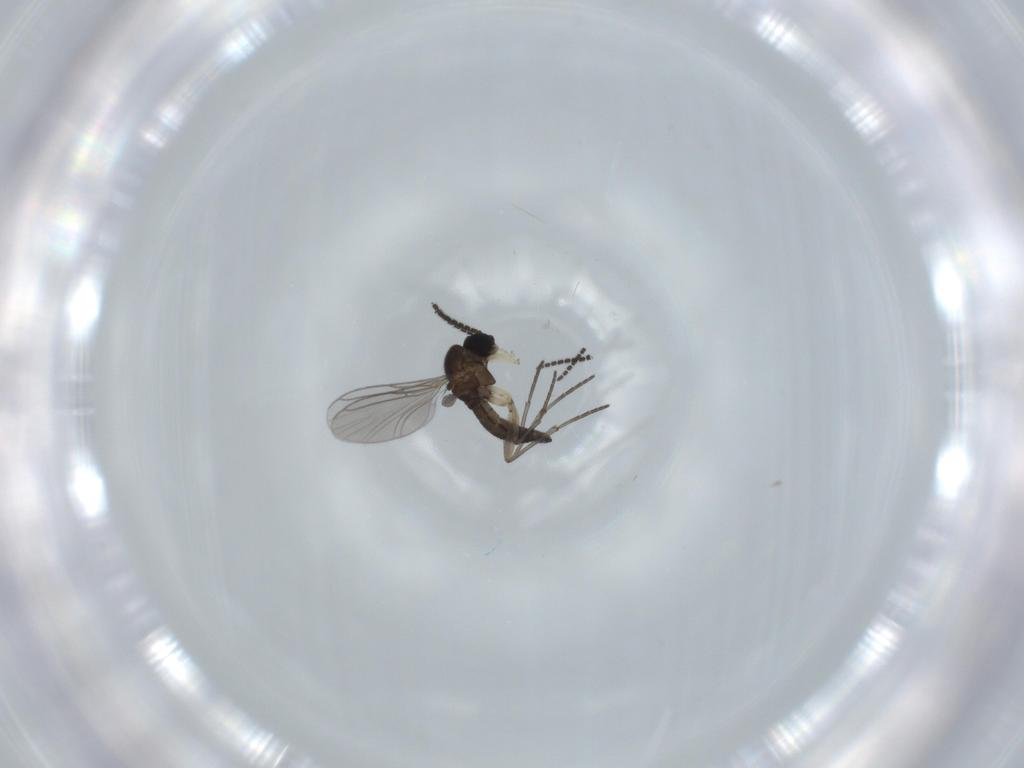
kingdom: Animalia
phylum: Arthropoda
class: Insecta
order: Diptera
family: Sciaridae
